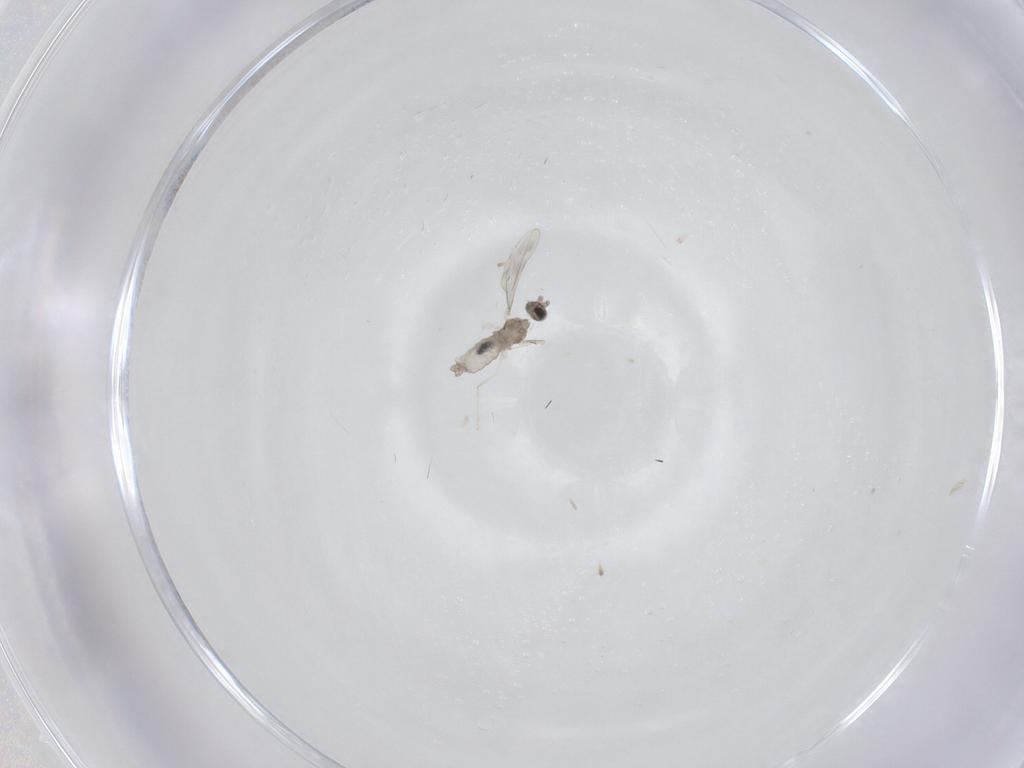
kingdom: Animalia
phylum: Arthropoda
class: Insecta
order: Diptera
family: Cecidomyiidae
